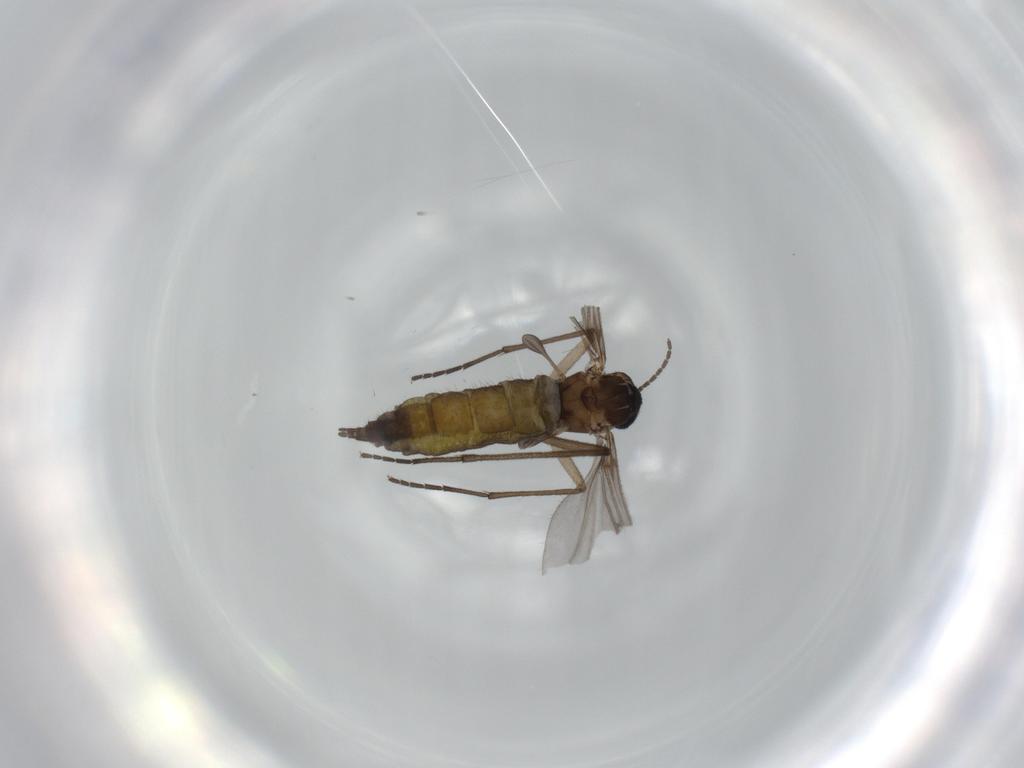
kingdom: Animalia
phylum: Arthropoda
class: Insecta
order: Diptera
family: Sciaridae
